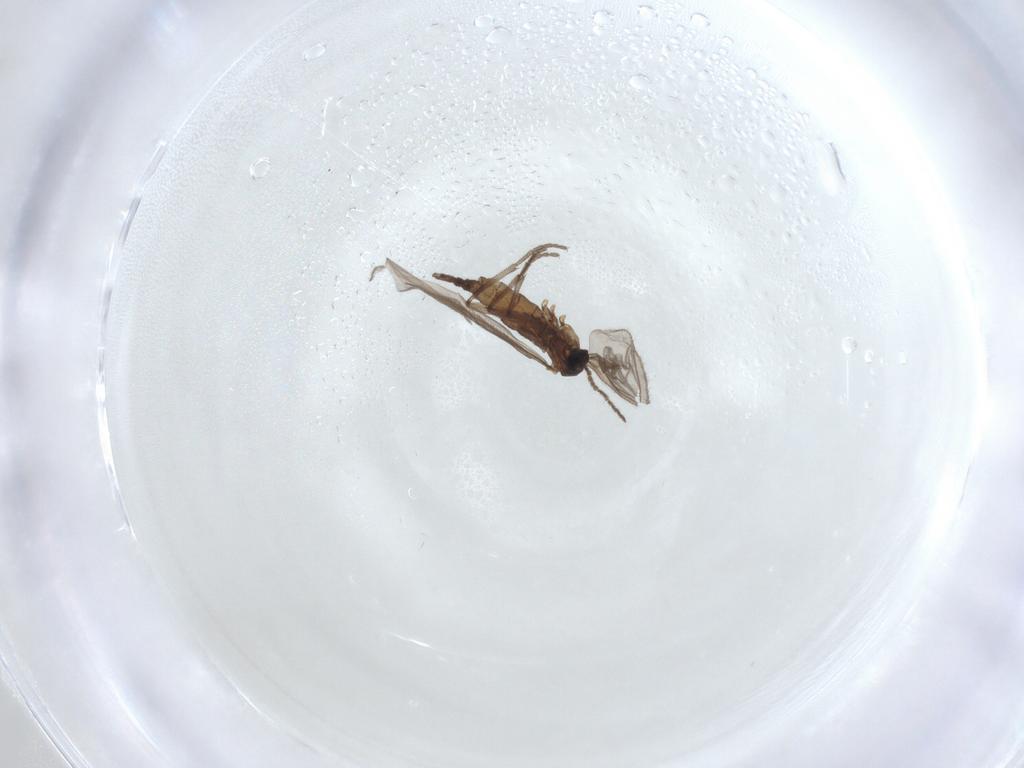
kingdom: Animalia
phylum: Arthropoda
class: Insecta
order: Diptera
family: Sciaridae
